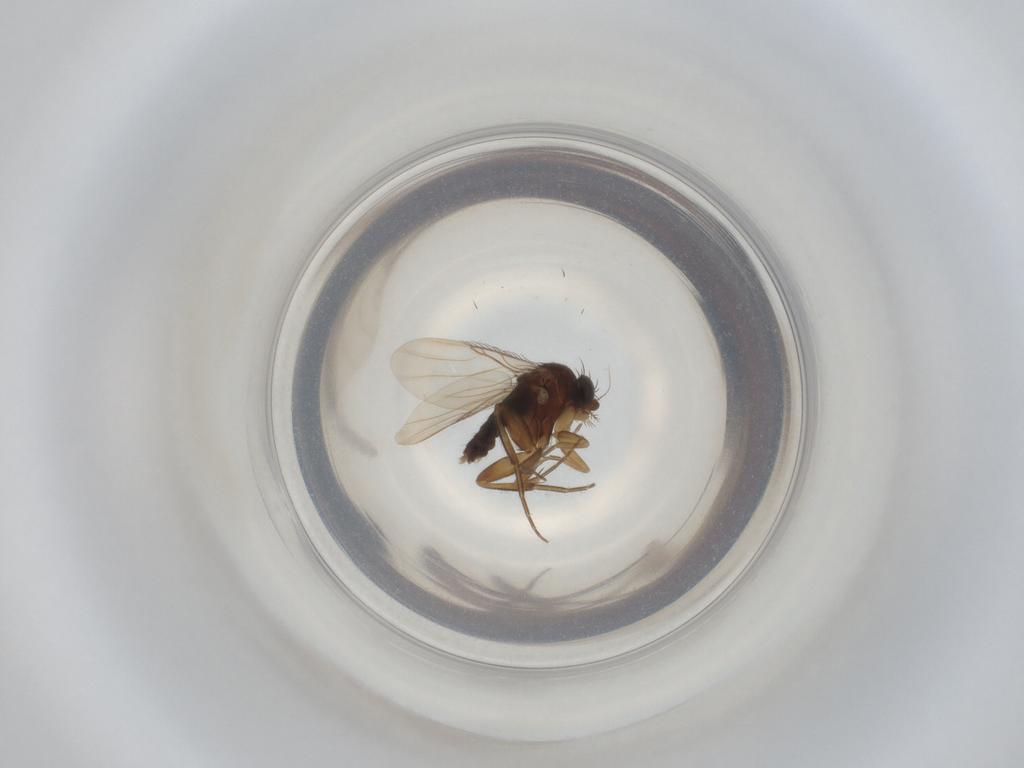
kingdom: Animalia
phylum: Arthropoda
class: Insecta
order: Diptera
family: Phoridae
